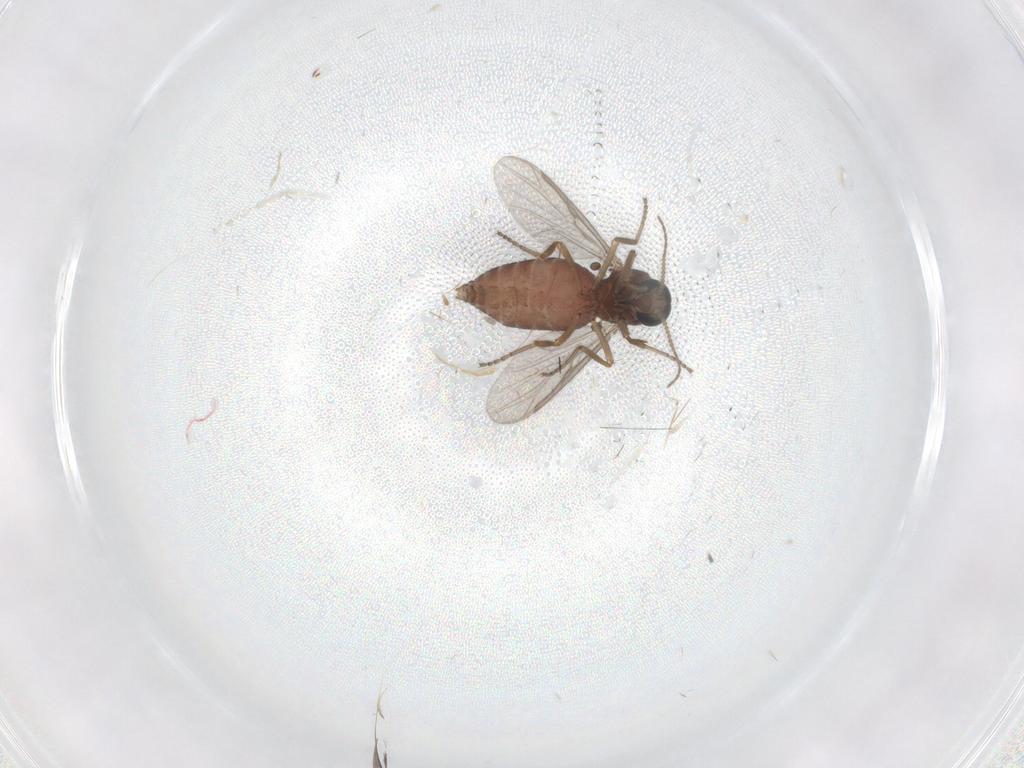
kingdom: Animalia
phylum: Arthropoda
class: Insecta
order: Diptera
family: Ceratopogonidae
